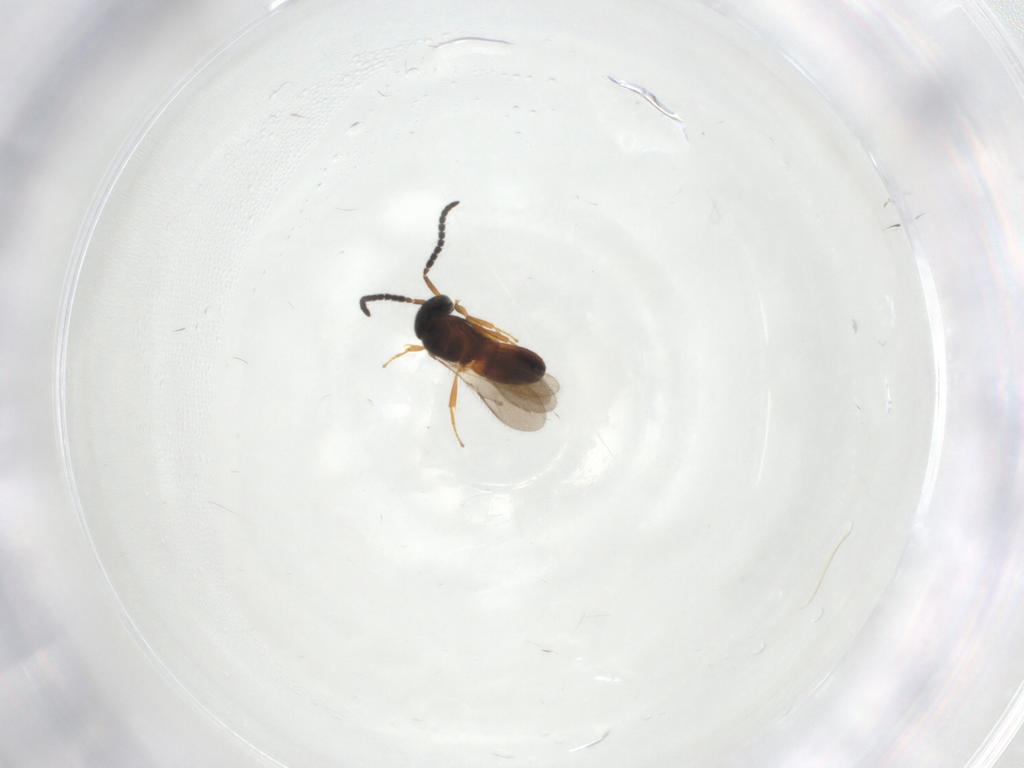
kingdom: Animalia
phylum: Arthropoda
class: Insecta
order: Hymenoptera
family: Scelionidae
